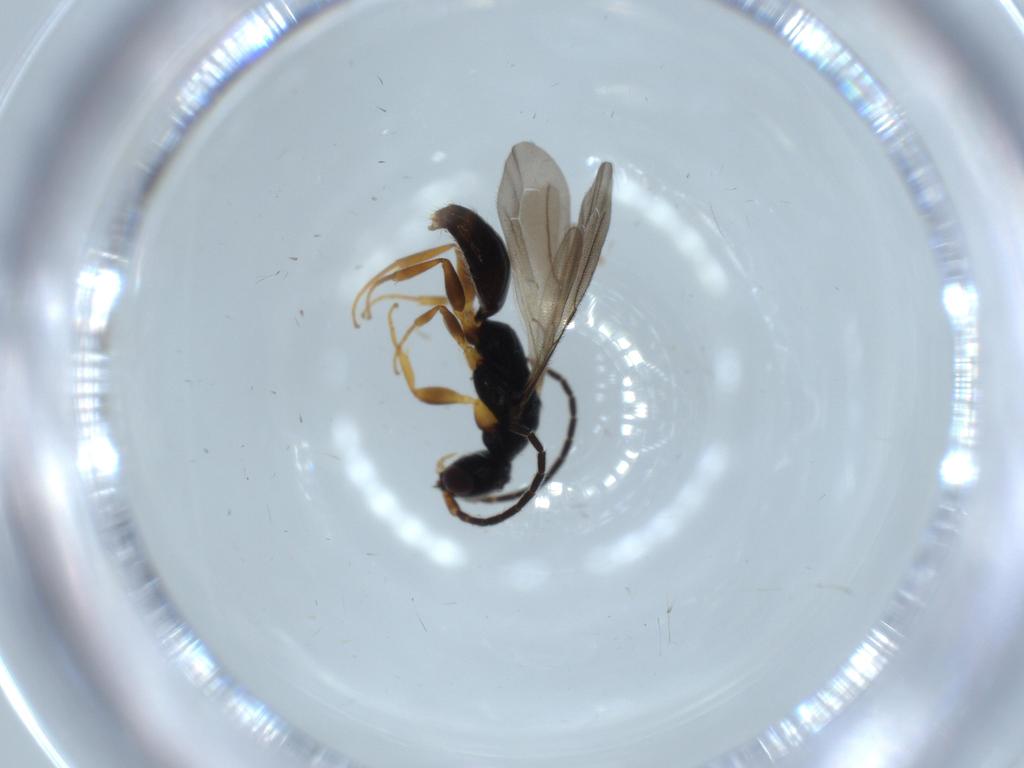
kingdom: Animalia
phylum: Arthropoda
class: Insecta
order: Hymenoptera
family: Bethylidae
